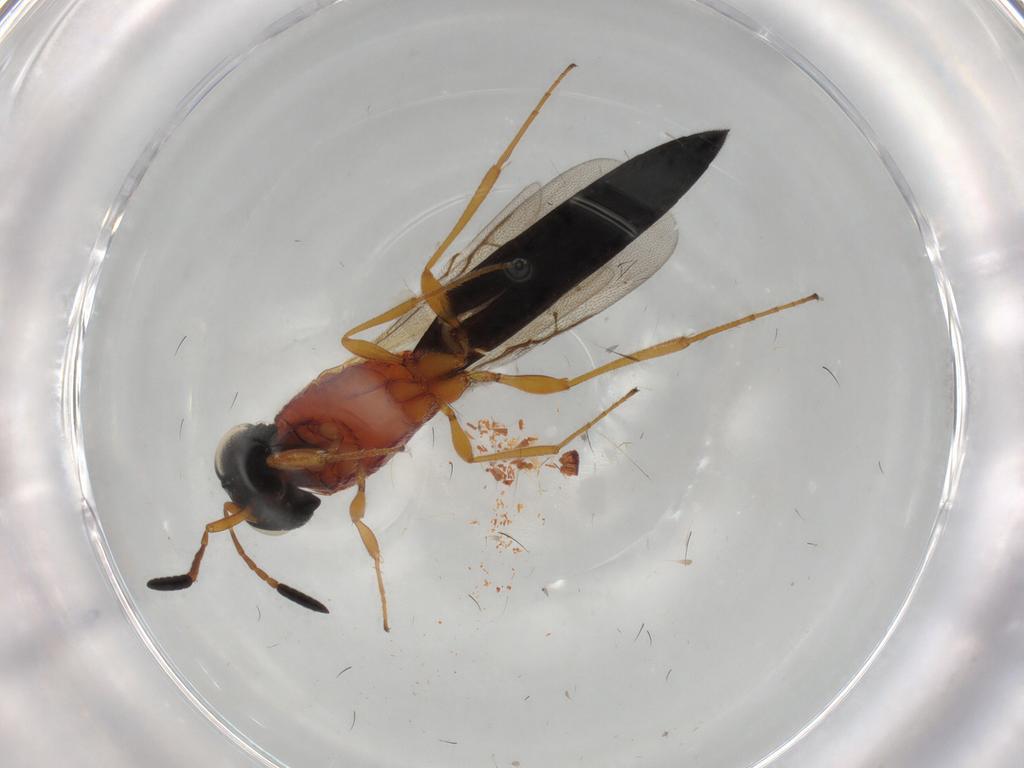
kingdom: Animalia
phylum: Arthropoda
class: Insecta
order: Hymenoptera
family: Scelionidae
